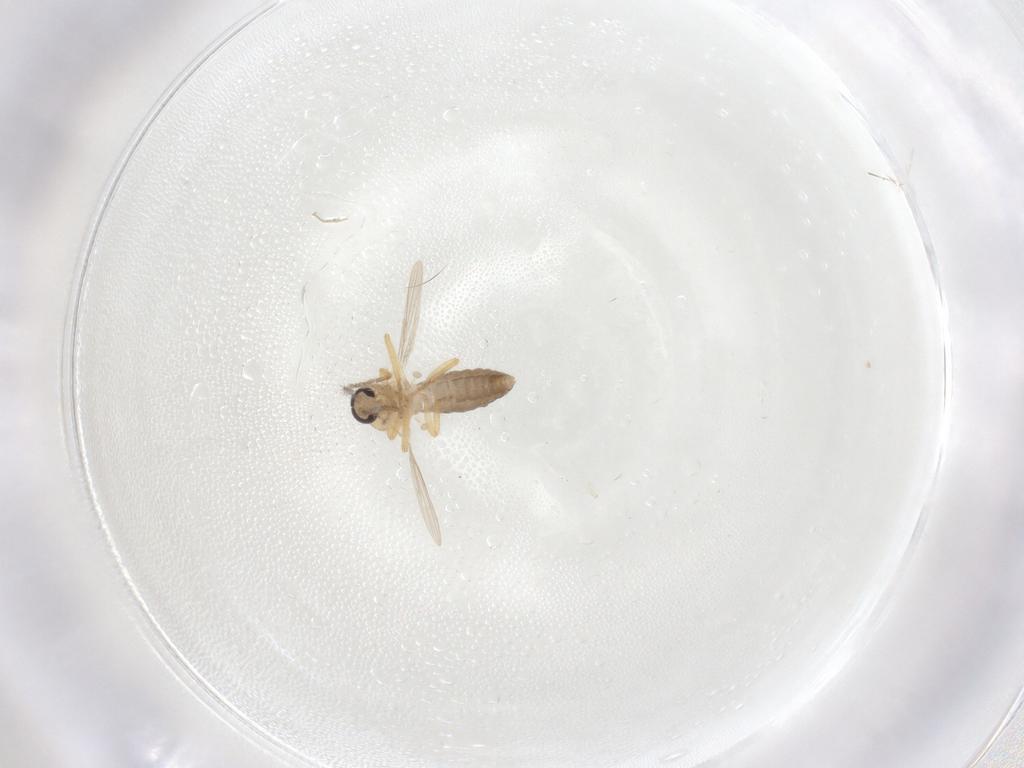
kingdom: Animalia
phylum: Arthropoda
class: Insecta
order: Diptera
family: Ceratopogonidae
